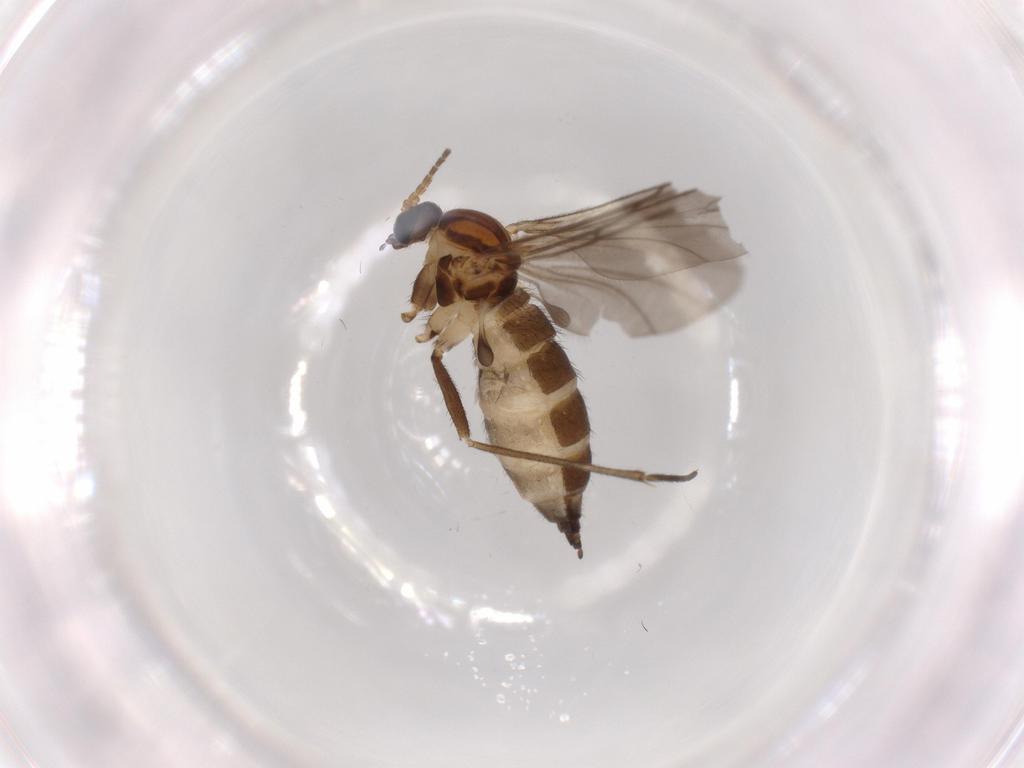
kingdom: Animalia
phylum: Arthropoda
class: Insecta
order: Diptera
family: Sciaridae
